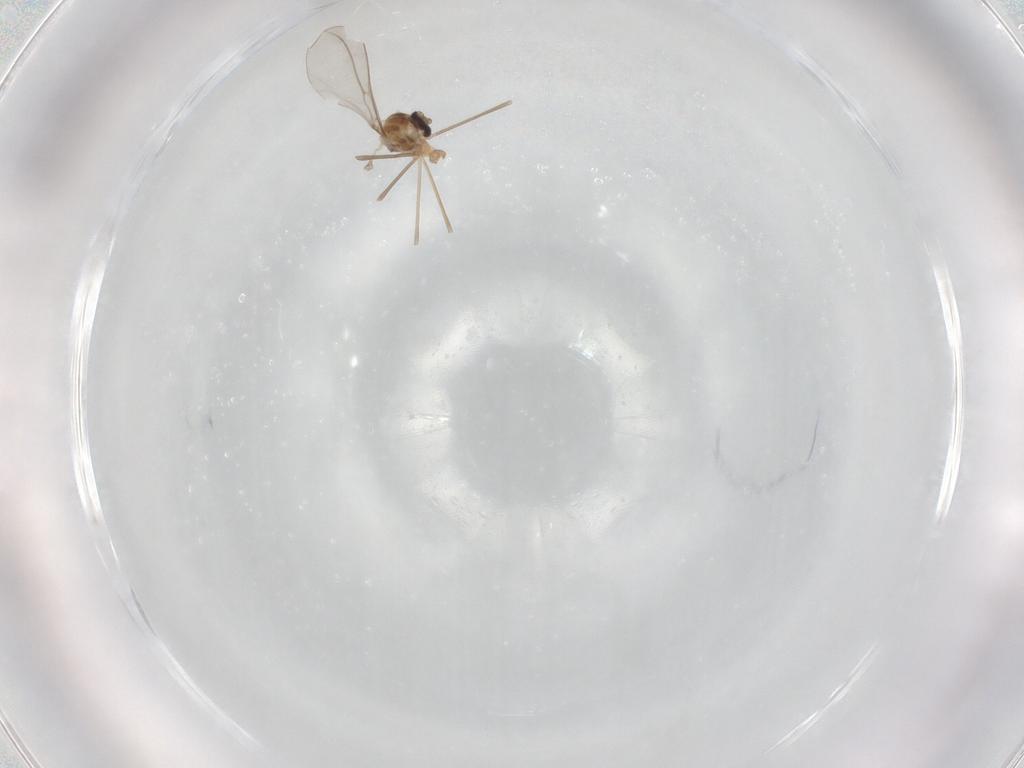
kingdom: Animalia
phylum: Arthropoda
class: Insecta
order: Diptera
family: Cecidomyiidae
